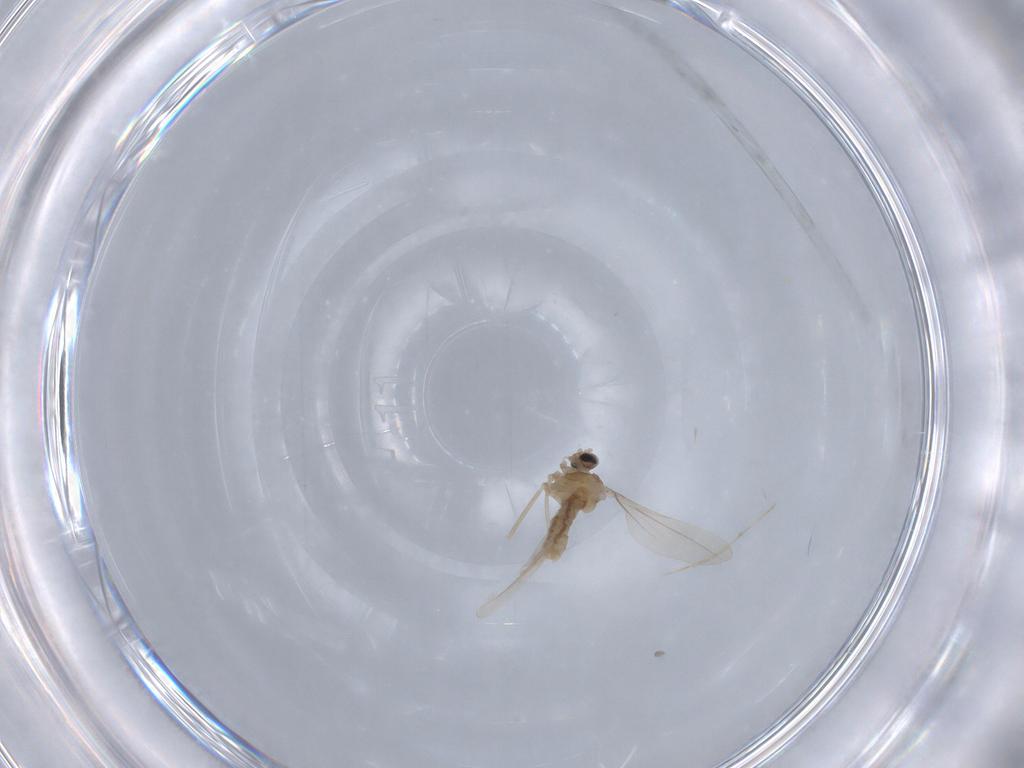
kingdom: Animalia
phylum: Arthropoda
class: Insecta
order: Diptera
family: Cecidomyiidae
